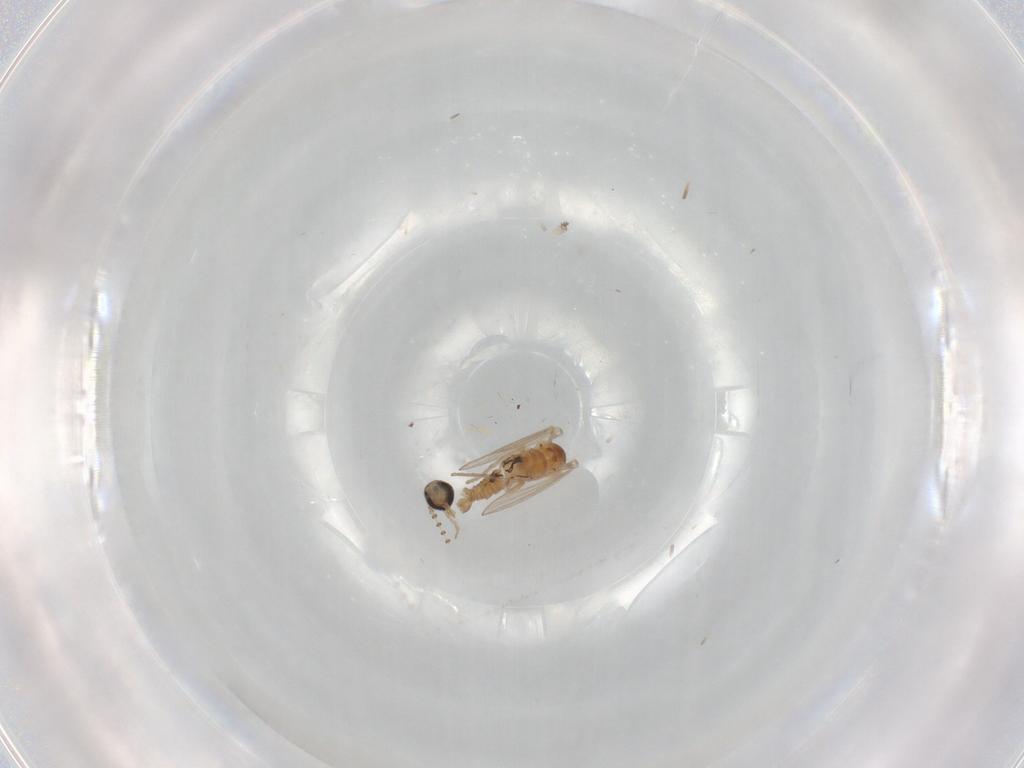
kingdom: Animalia
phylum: Arthropoda
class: Insecta
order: Diptera
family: Psychodidae
